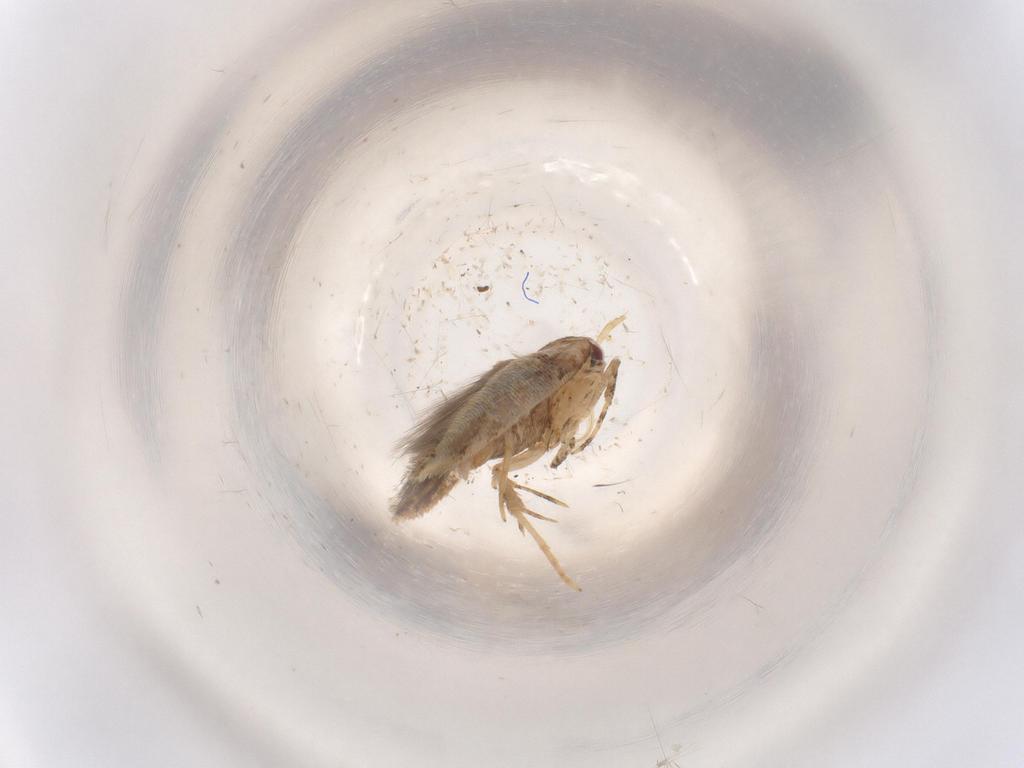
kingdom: Animalia
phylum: Arthropoda
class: Insecta
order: Lepidoptera
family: Cosmopterigidae
